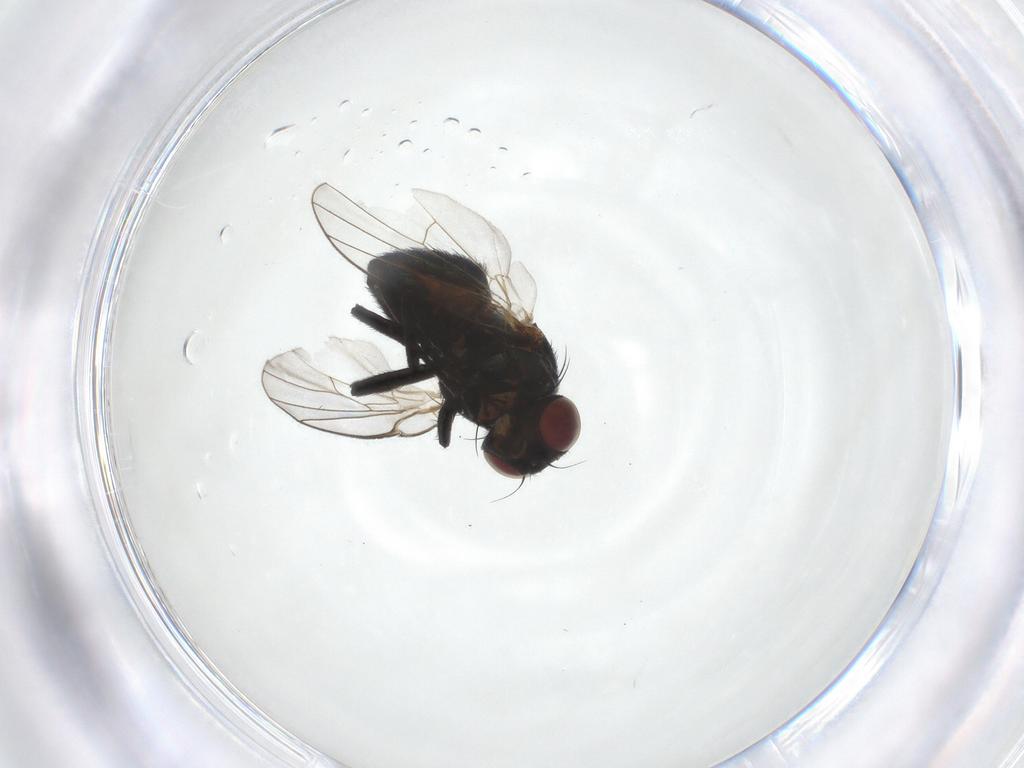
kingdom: Animalia
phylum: Arthropoda
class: Insecta
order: Diptera
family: Agromyzidae
